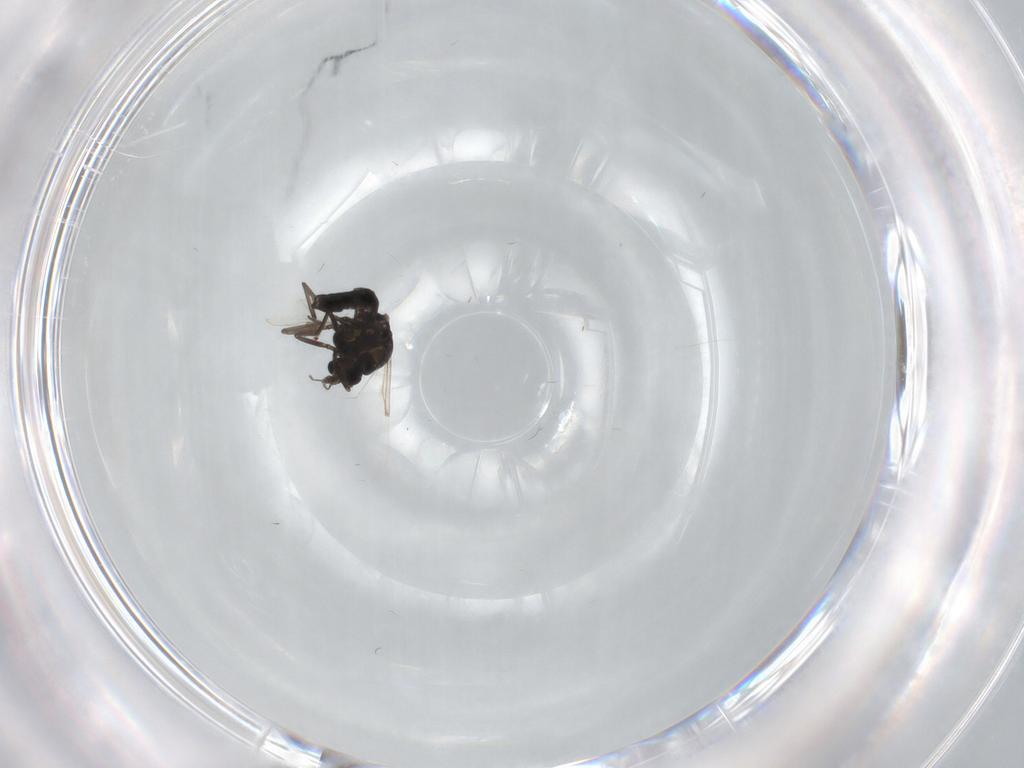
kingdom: Animalia
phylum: Arthropoda
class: Insecta
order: Diptera
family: Ceratopogonidae
